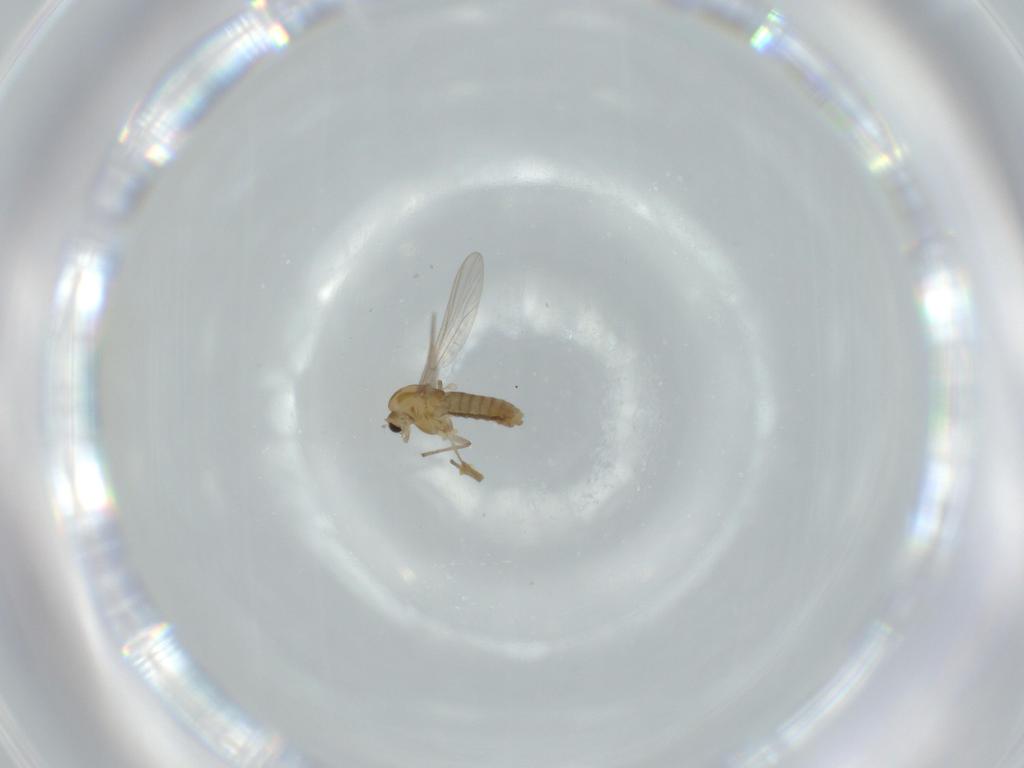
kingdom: Animalia
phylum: Arthropoda
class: Insecta
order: Diptera
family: Chironomidae
